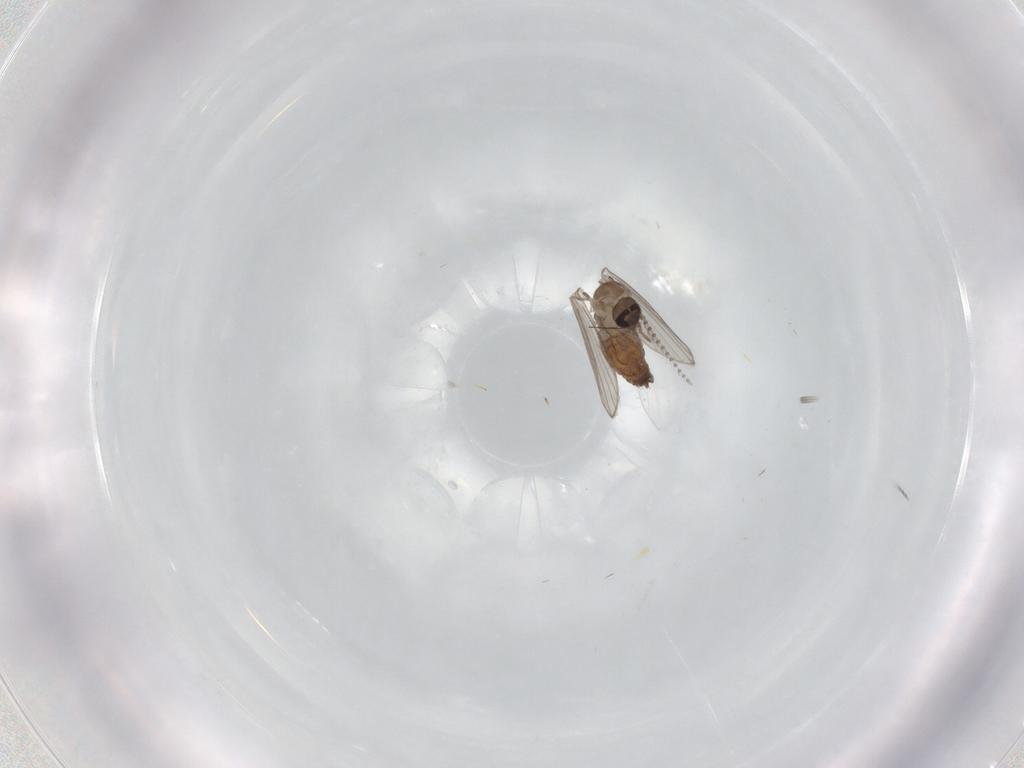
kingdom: Animalia
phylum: Arthropoda
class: Insecta
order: Diptera
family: Psychodidae
